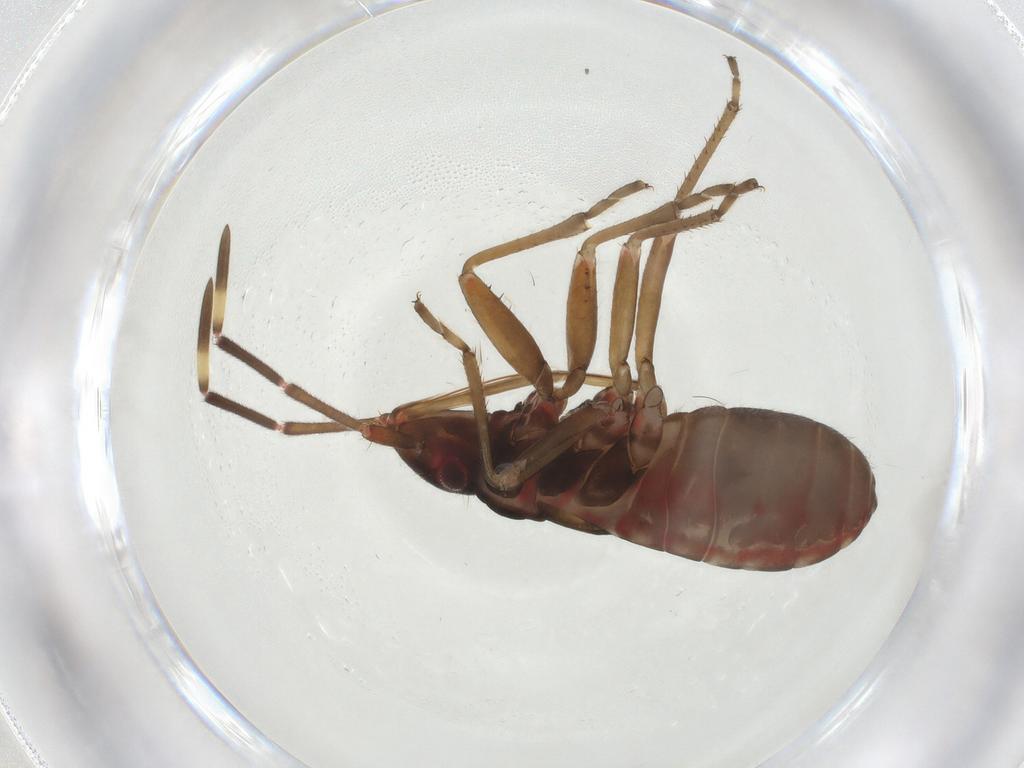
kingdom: Animalia
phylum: Arthropoda
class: Insecta
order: Hemiptera
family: Rhyparochromidae
